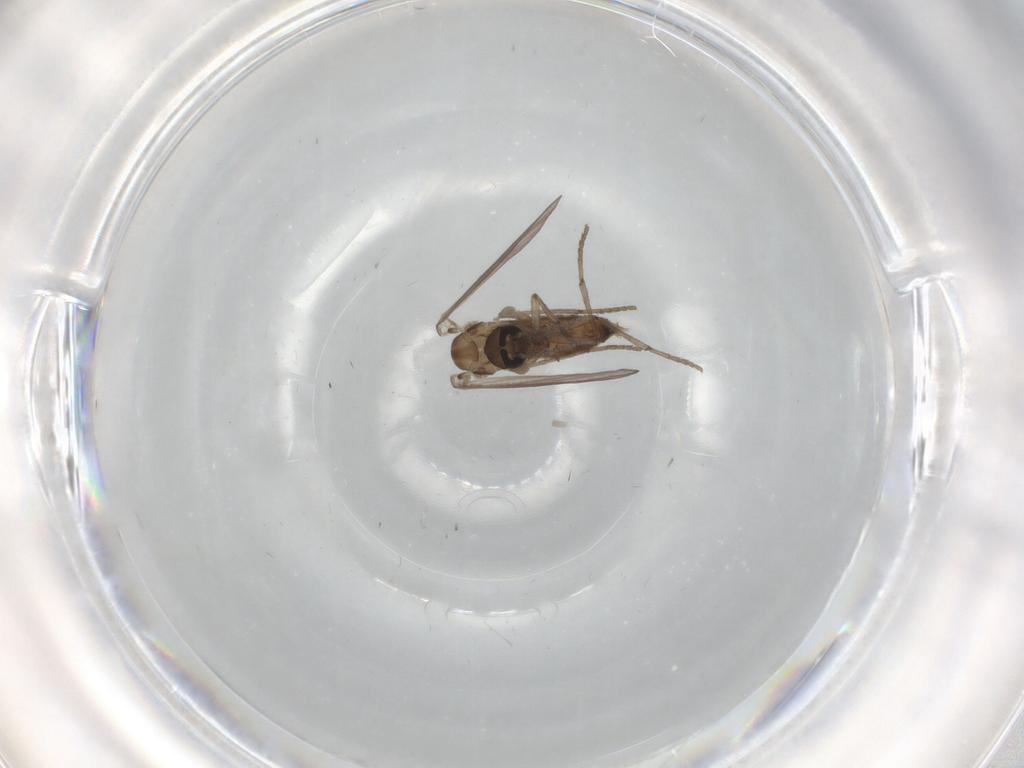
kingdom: Animalia
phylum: Arthropoda
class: Insecta
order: Diptera
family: Psychodidae
